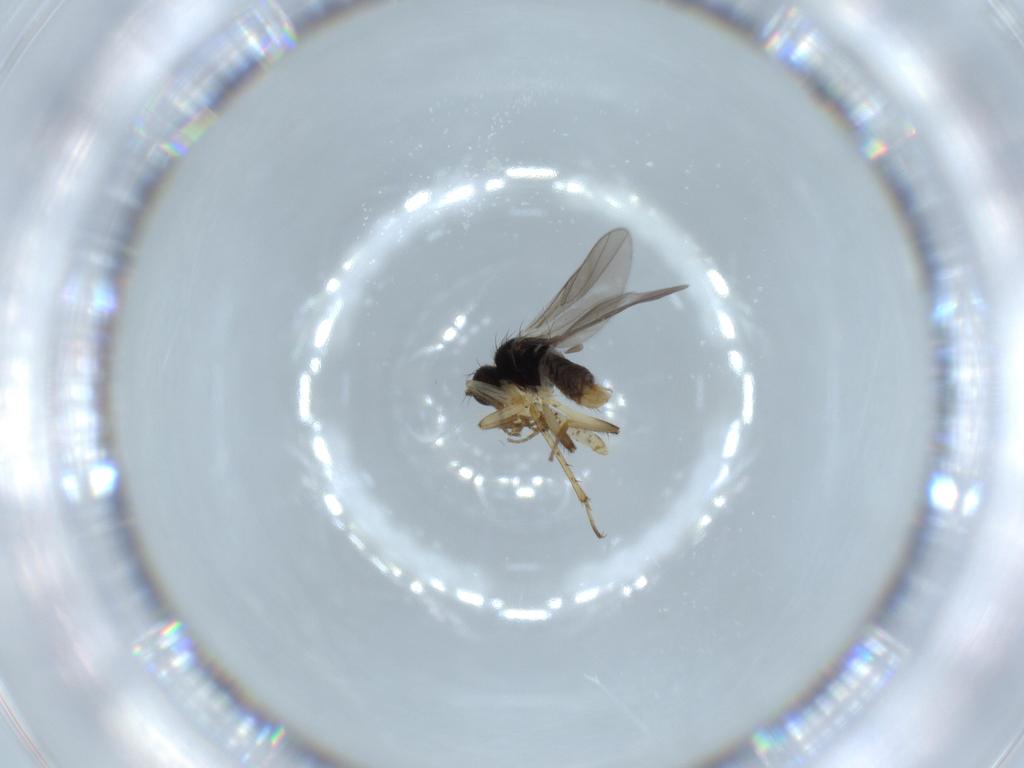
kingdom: Animalia
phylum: Arthropoda
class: Insecta
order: Diptera
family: Hybotidae
